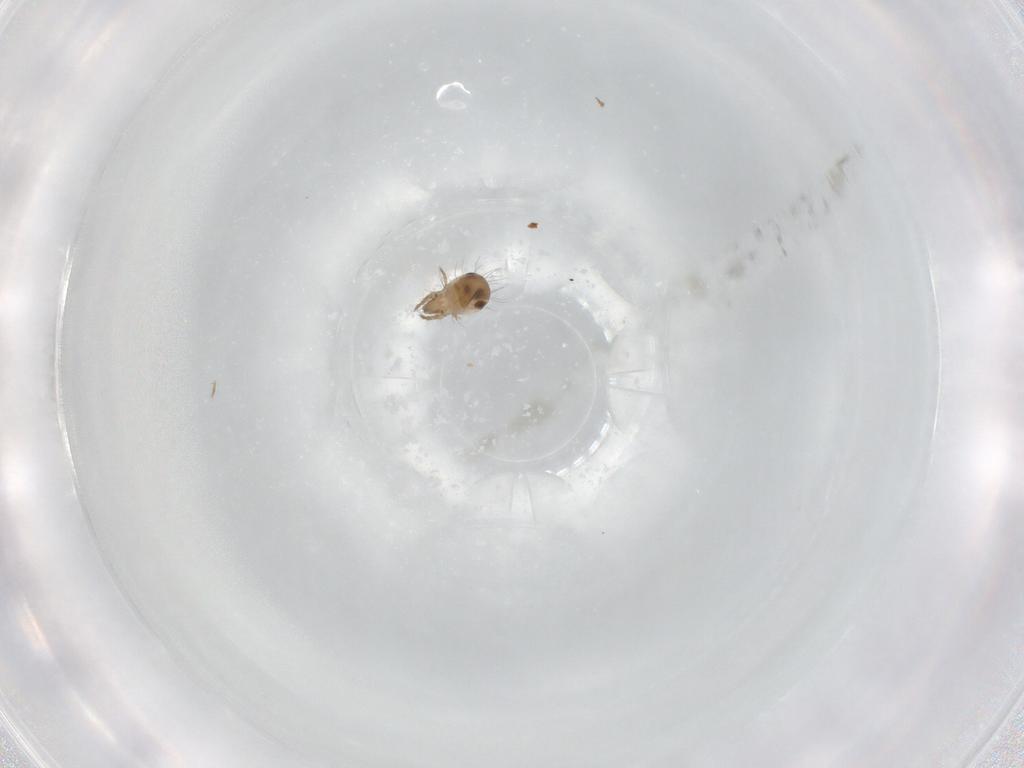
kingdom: Animalia
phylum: Arthropoda
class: Arachnida
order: Sarcoptiformes
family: Humerobatidae
